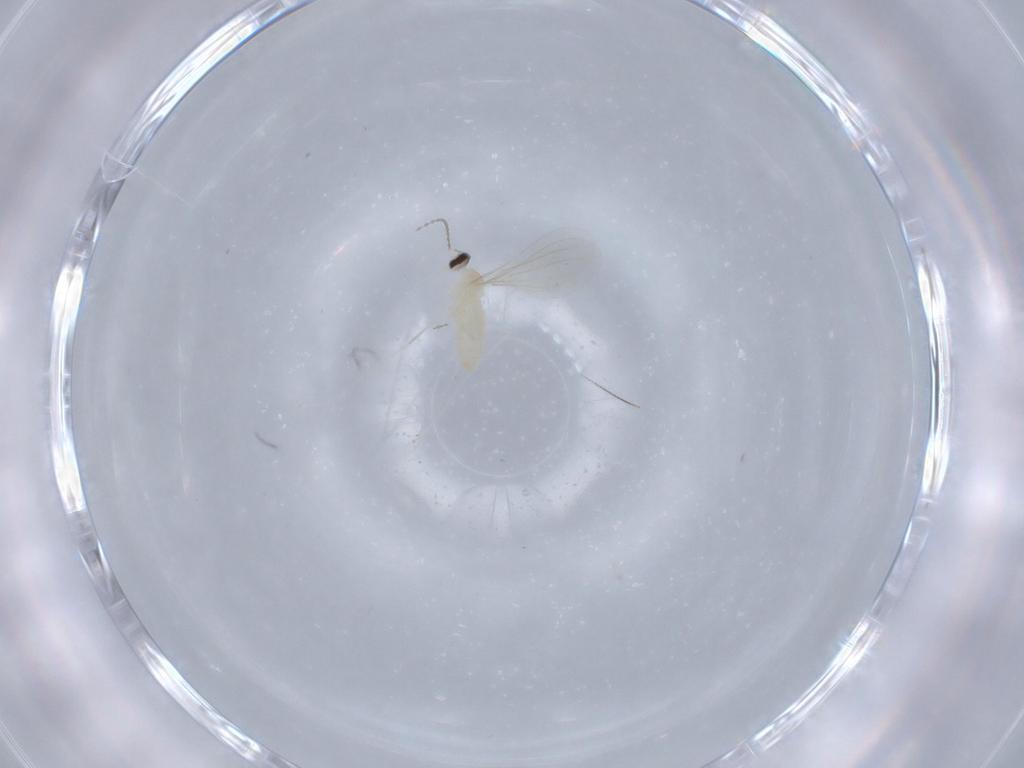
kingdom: Animalia
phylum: Arthropoda
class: Insecta
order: Diptera
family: Cecidomyiidae
